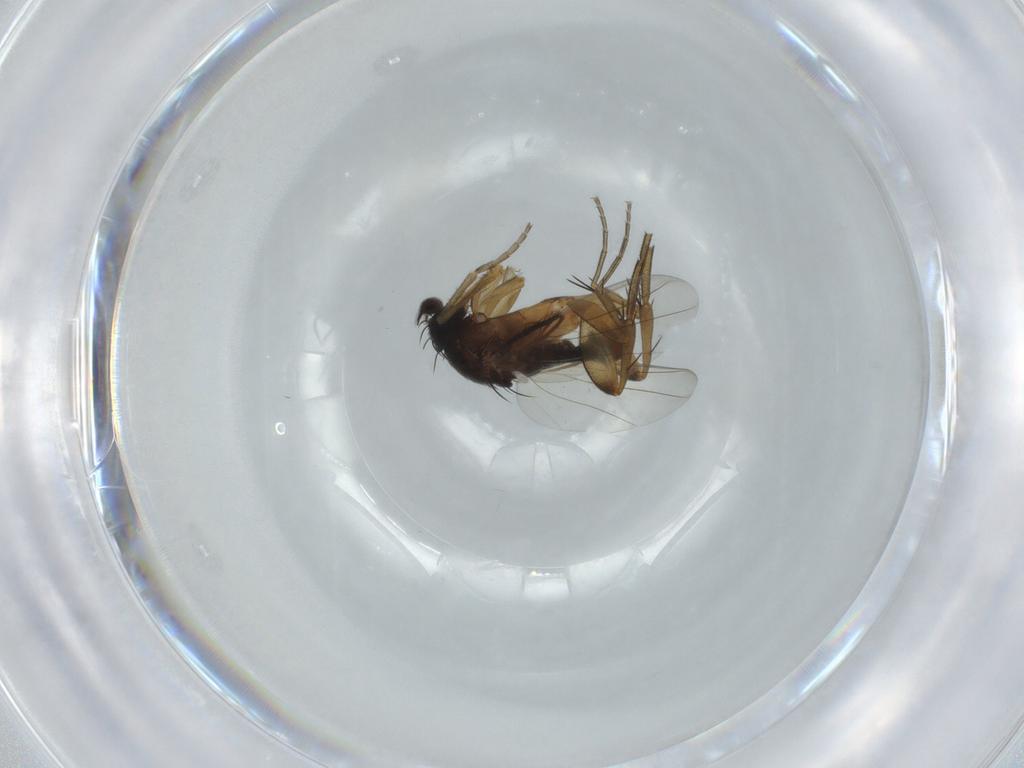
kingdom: Animalia
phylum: Arthropoda
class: Insecta
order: Diptera
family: Phoridae
